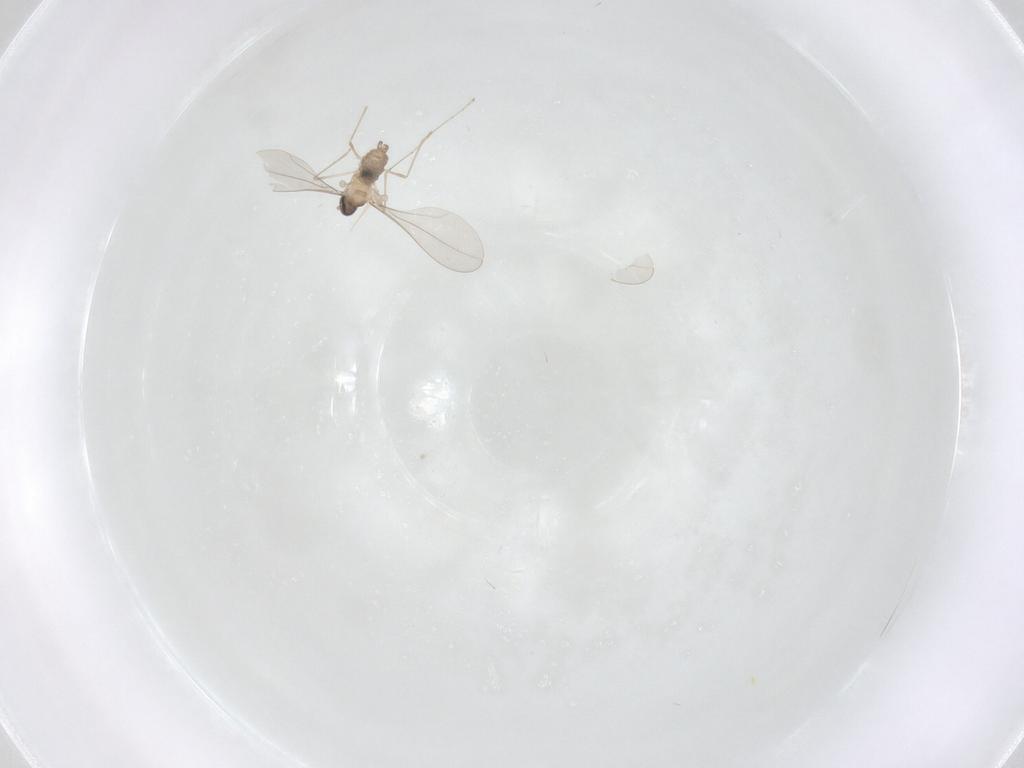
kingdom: Animalia
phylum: Arthropoda
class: Insecta
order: Diptera
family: Cecidomyiidae
